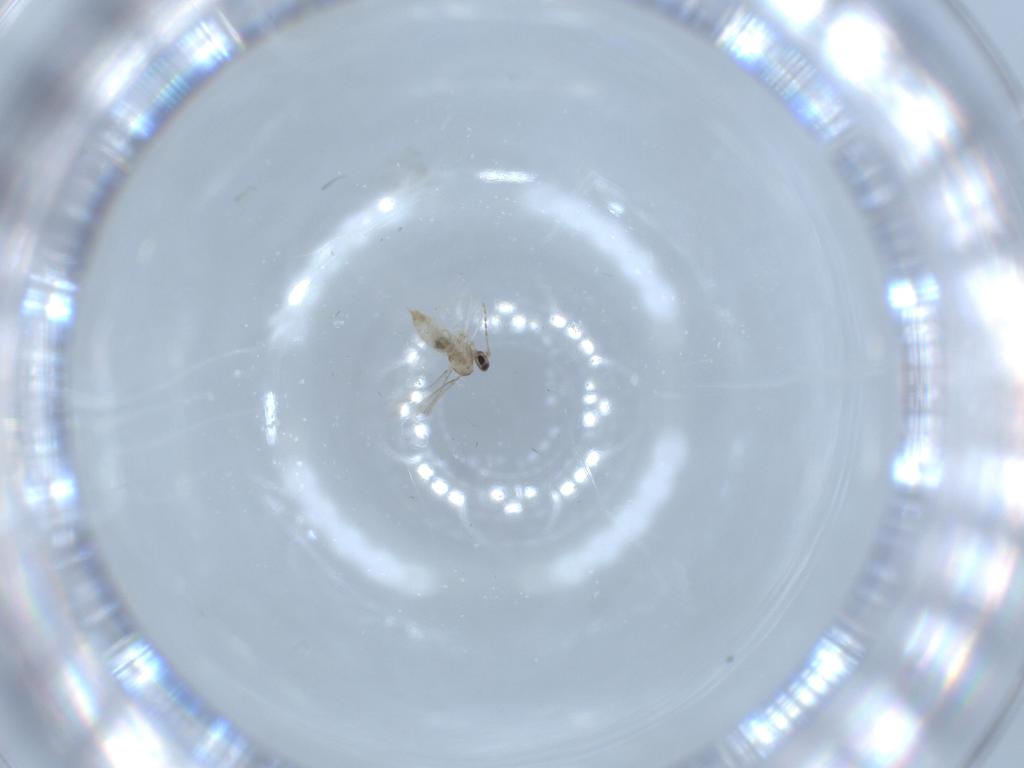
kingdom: Animalia
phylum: Arthropoda
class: Insecta
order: Diptera
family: Cecidomyiidae
